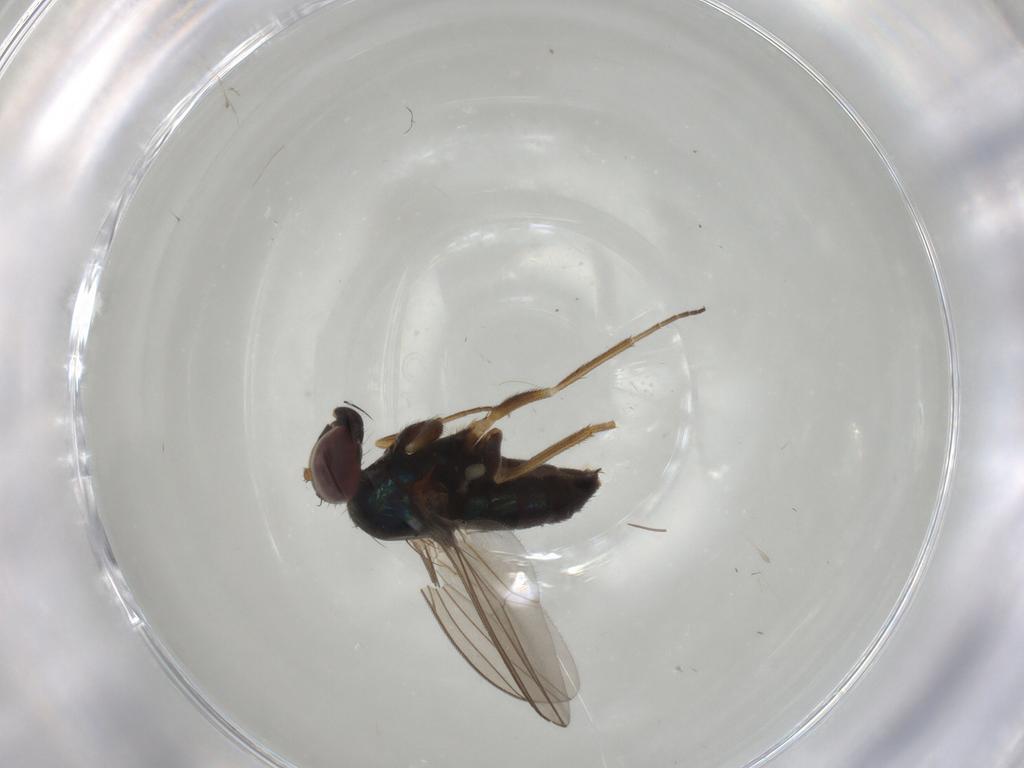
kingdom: Animalia
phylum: Arthropoda
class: Insecta
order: Diptera
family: Dolichopodidae
